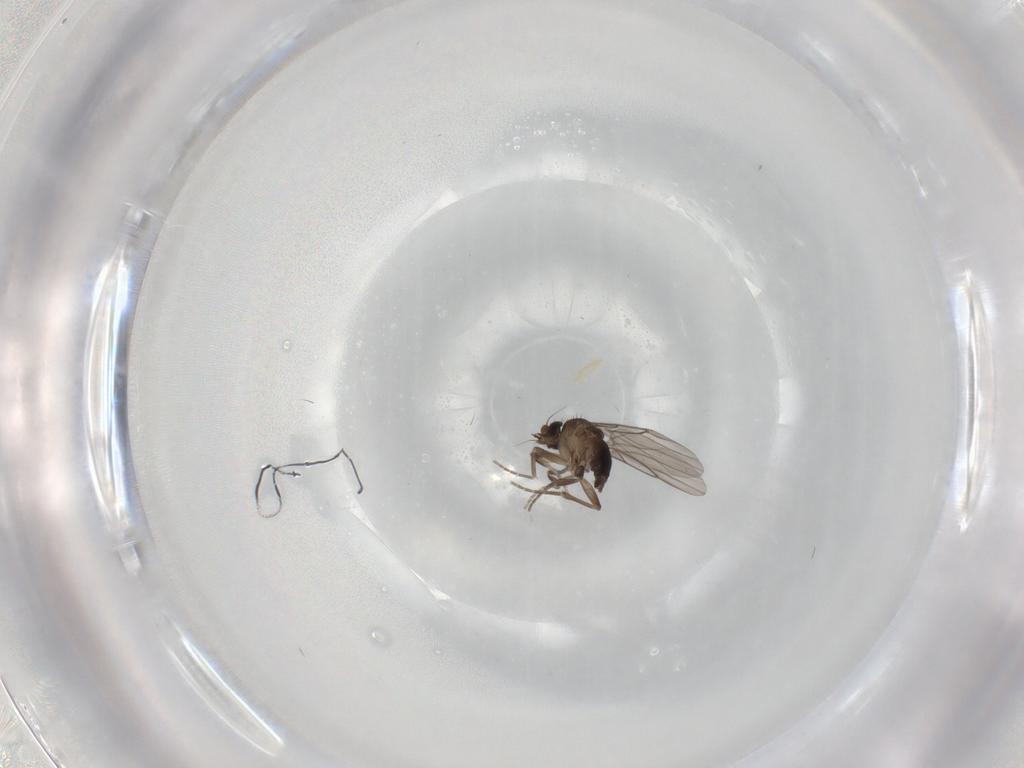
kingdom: Animalia
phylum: Arthropoda
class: Insecta
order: Diptera
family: Phoridae
